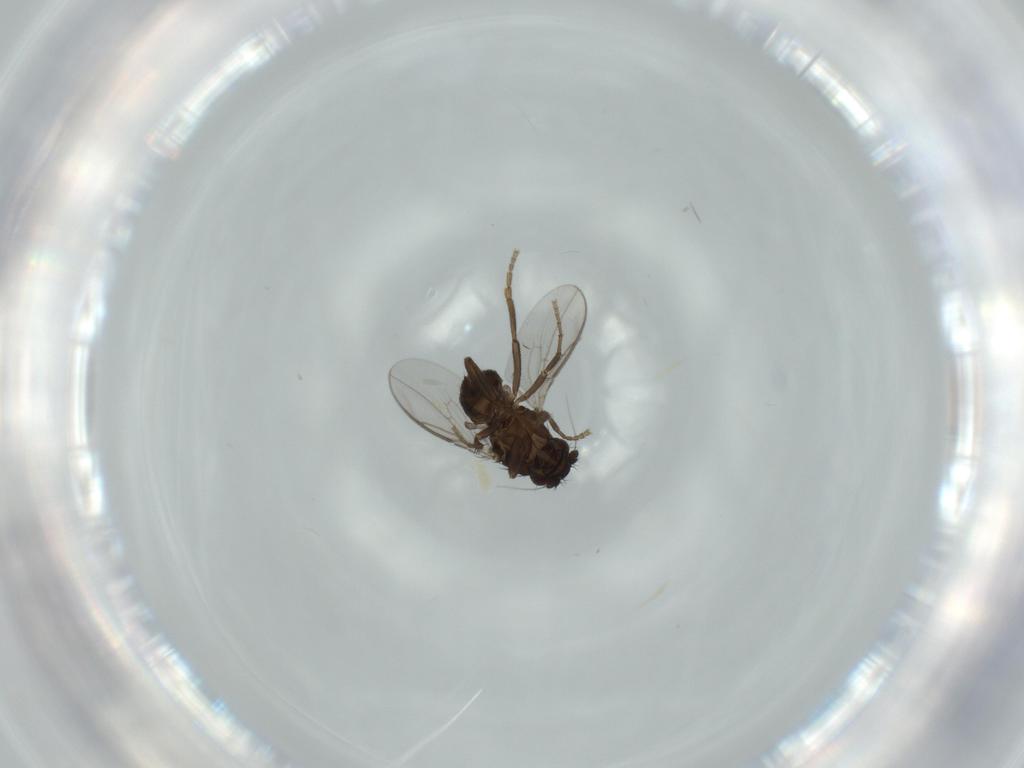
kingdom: Animalia
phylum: Arthropoda
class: Insecta
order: Diptera
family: Sphaeroceridae
